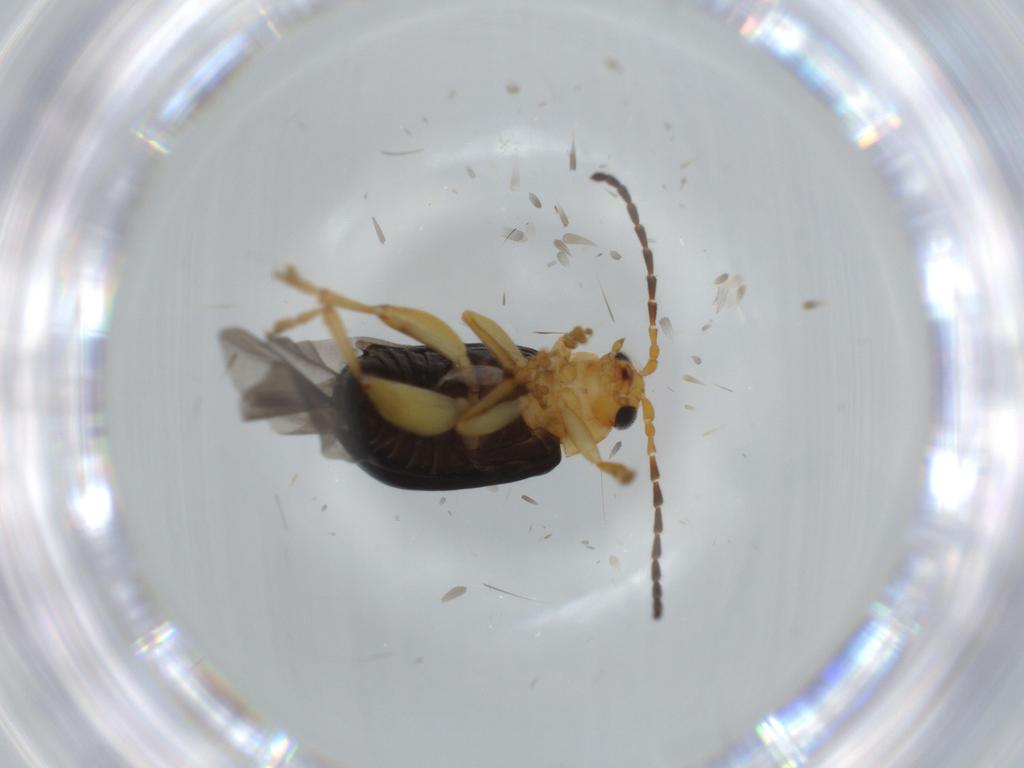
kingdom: Animalia
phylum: Arthropoda
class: Insecta
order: Coleoptera
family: Chrysomelidae
